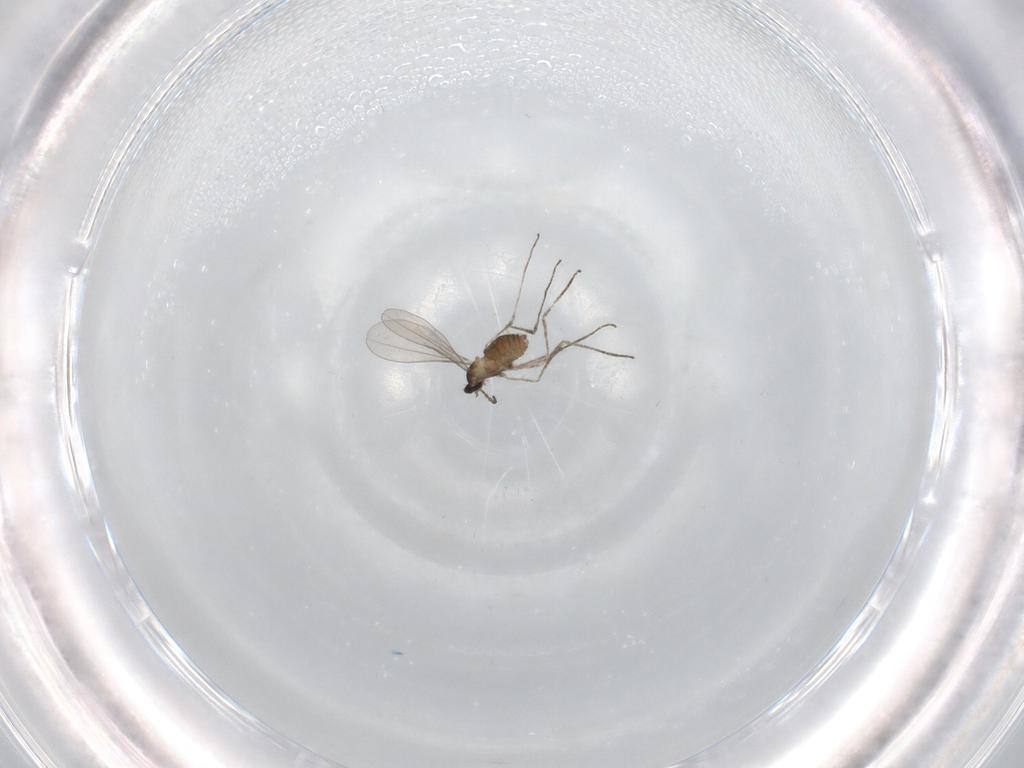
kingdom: Animalia
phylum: Arthropoda
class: Insecta
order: Diptera
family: Cecidomyiidae
